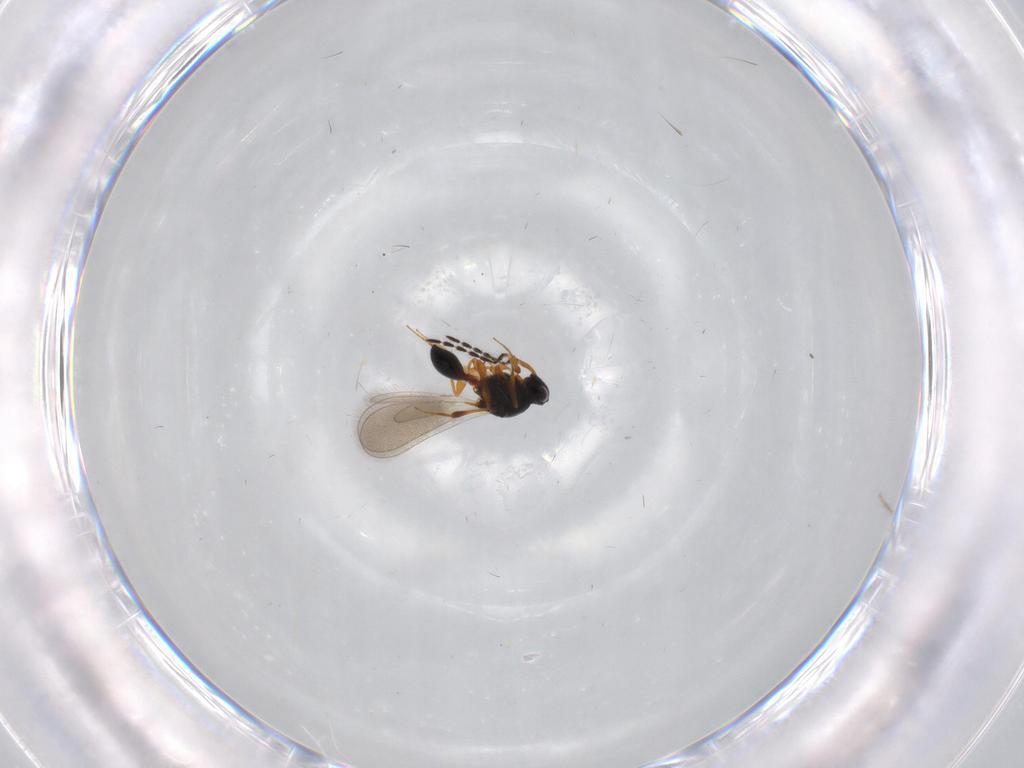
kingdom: Animalia
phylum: Arthropoda
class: Insecta
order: Hymenoptera
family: Platygastridae
